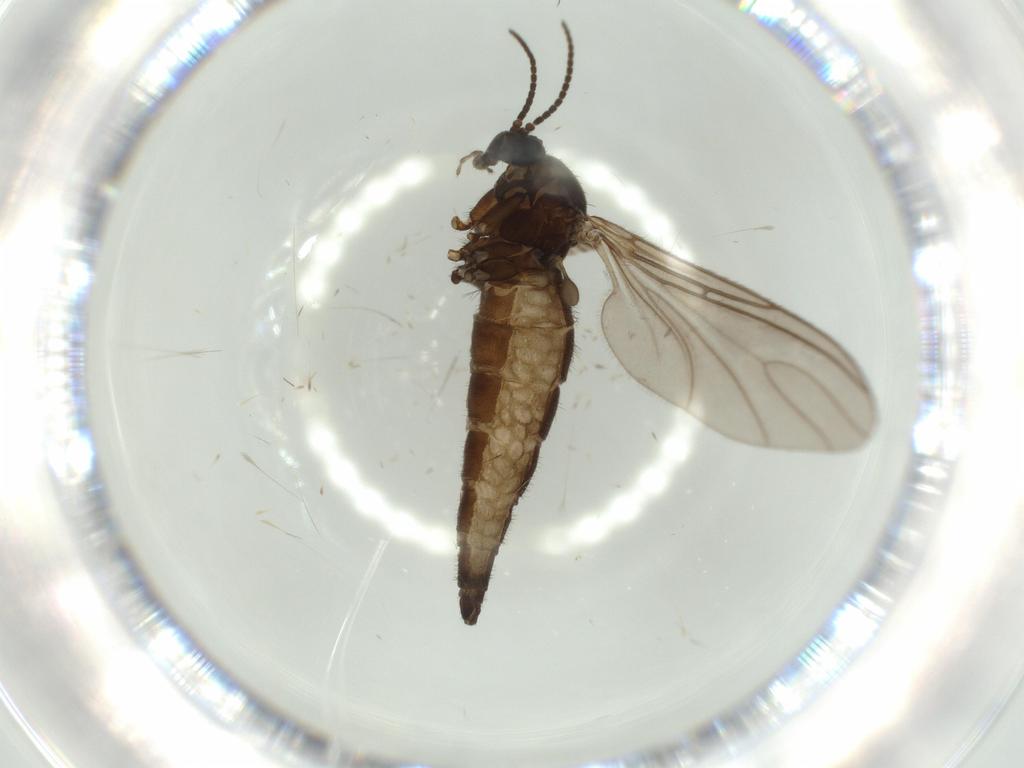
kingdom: Animalia
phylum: Arthropoda
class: Insecta
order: Diptera
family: Sciaridae
